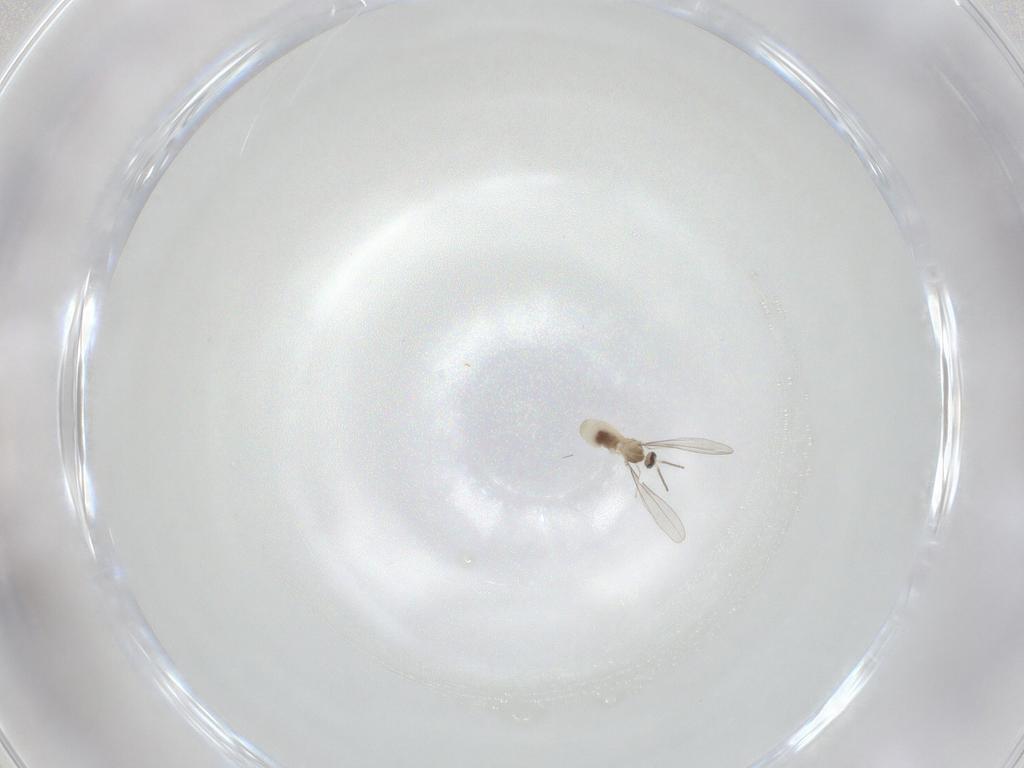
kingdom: Animalia
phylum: Arthropoda
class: Insecta
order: Diptera
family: Cecidomyiidae
